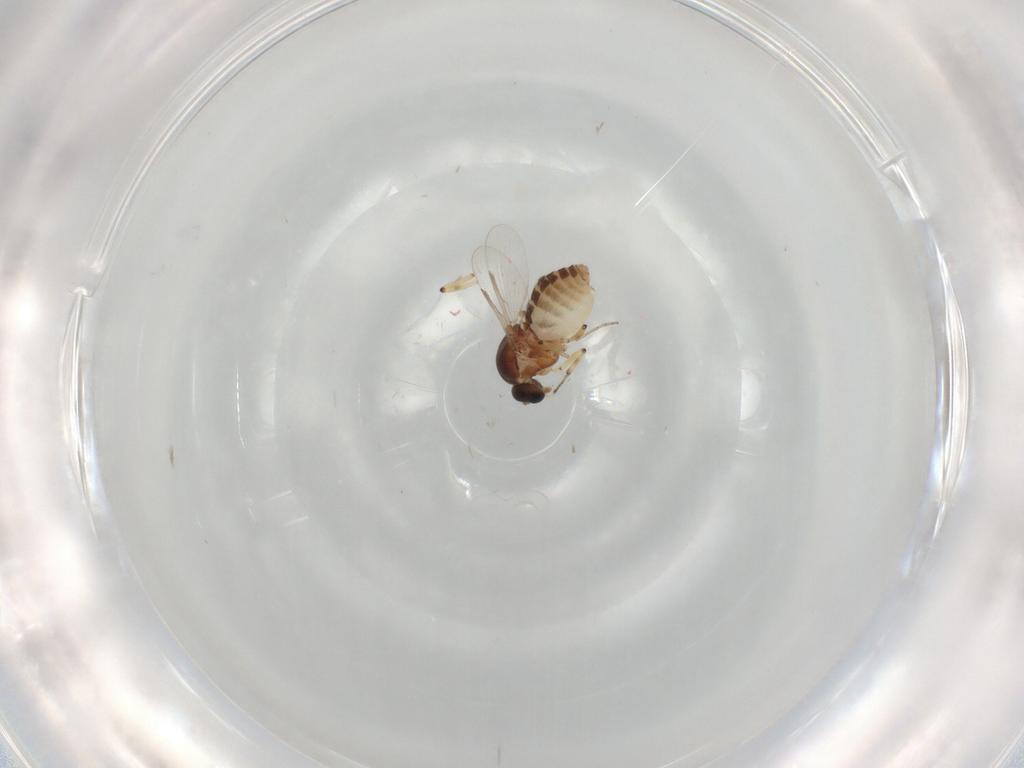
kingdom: Animalia
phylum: Arthropoda
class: Insecta
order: Diptera
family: Ceratopogonidae
